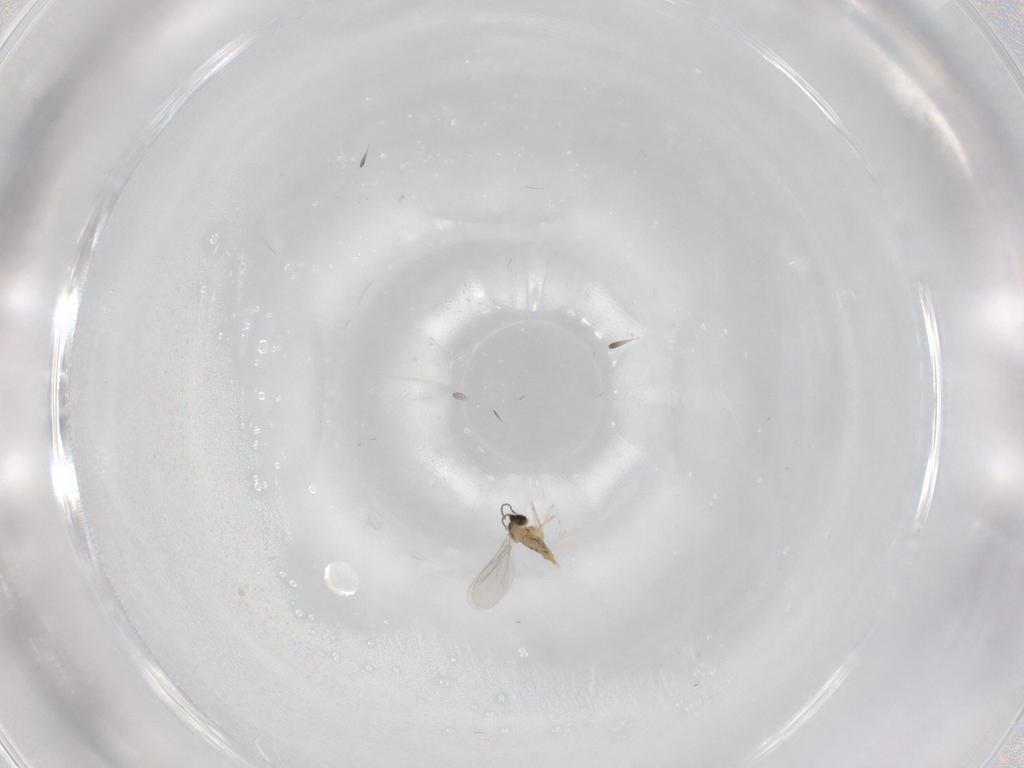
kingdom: Animalia
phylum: Arthropoda
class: Insecta
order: Diptera
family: Cecidomyiidae
